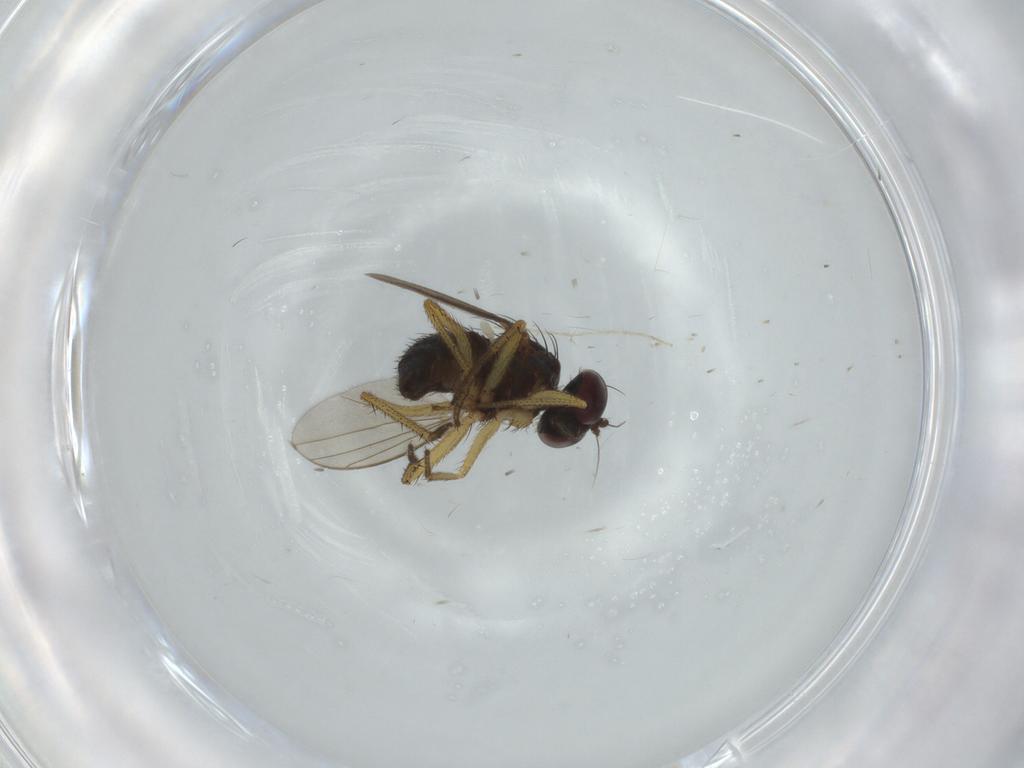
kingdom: Animalia
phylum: Arthropoda
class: Insecta
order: Diptera
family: Dolichopodidae
